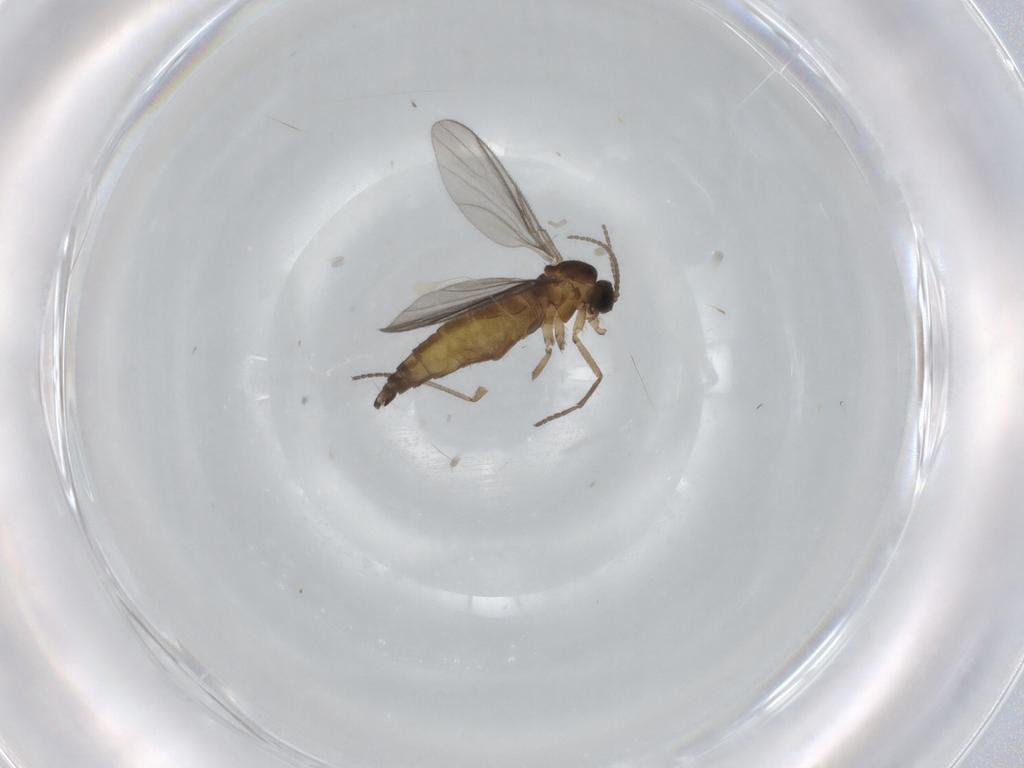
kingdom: Animalia
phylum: Arthropoda
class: Insecta
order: Diptera
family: Sciaridae
